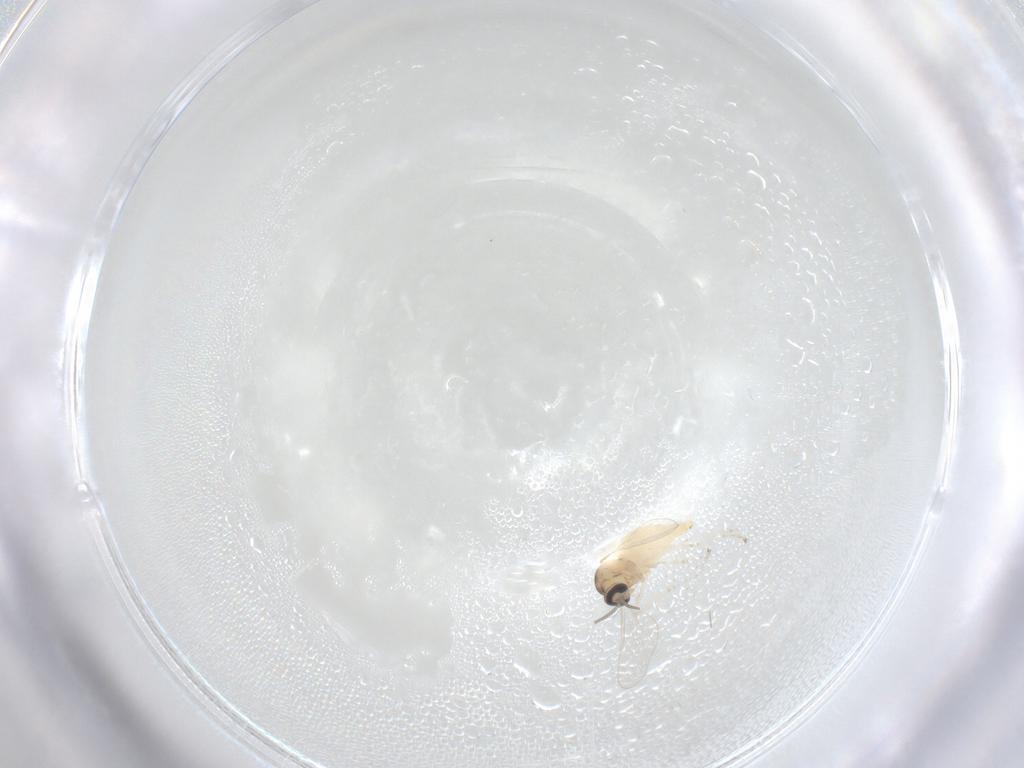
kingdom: Animalia
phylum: Arthropoda
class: Insecta
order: Diptera
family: Cecidomyiidae
